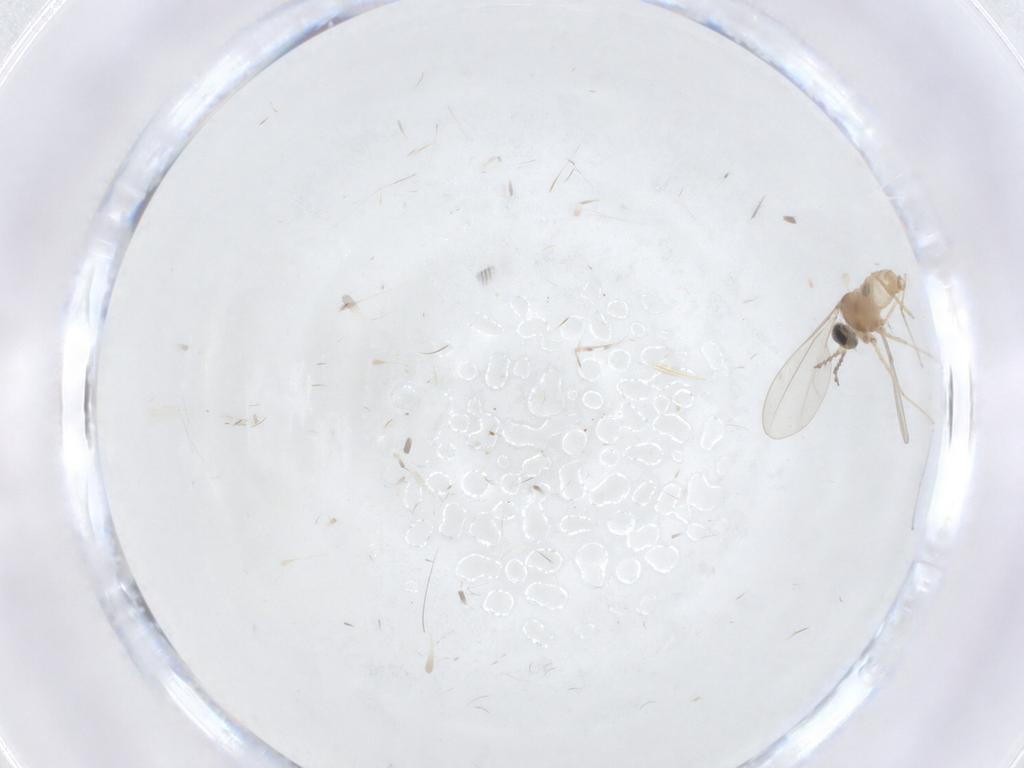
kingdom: Animalia
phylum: Arthropoda
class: Insecta
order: Diptera
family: Cecidomyiidae
